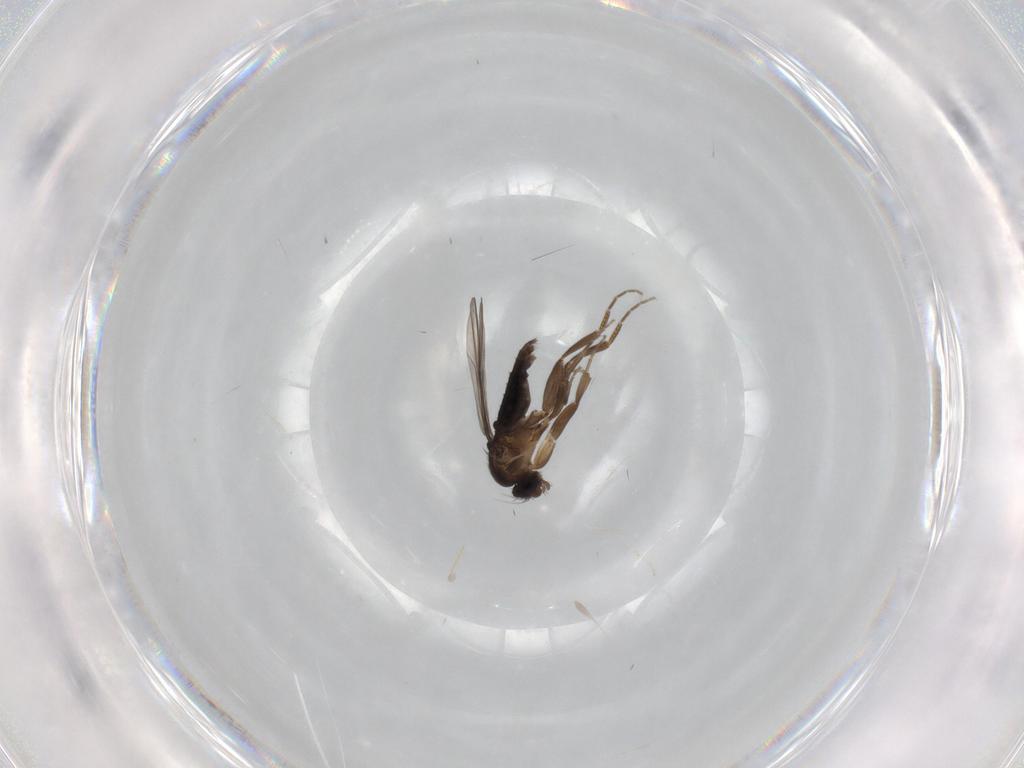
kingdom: Animalia
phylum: Arthropoda
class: Insecta
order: Diptera
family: Cecidomyiidae
